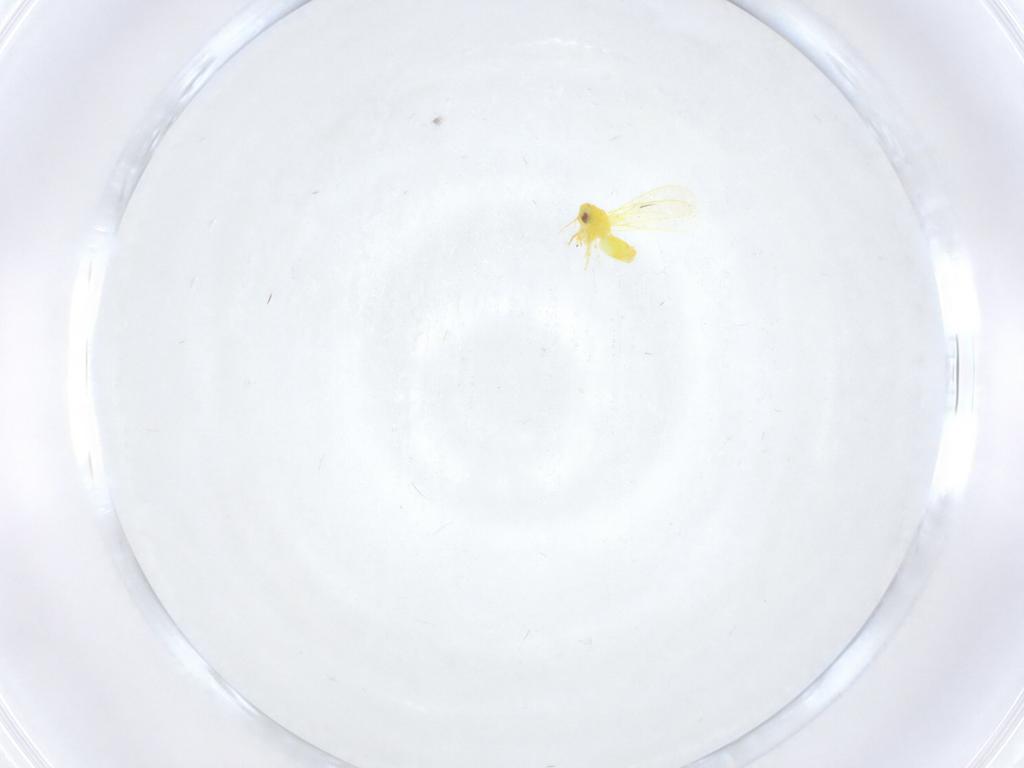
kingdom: Animalia
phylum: Arthropoda
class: Insecta
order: Hemiptera
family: Aleyrodidae
